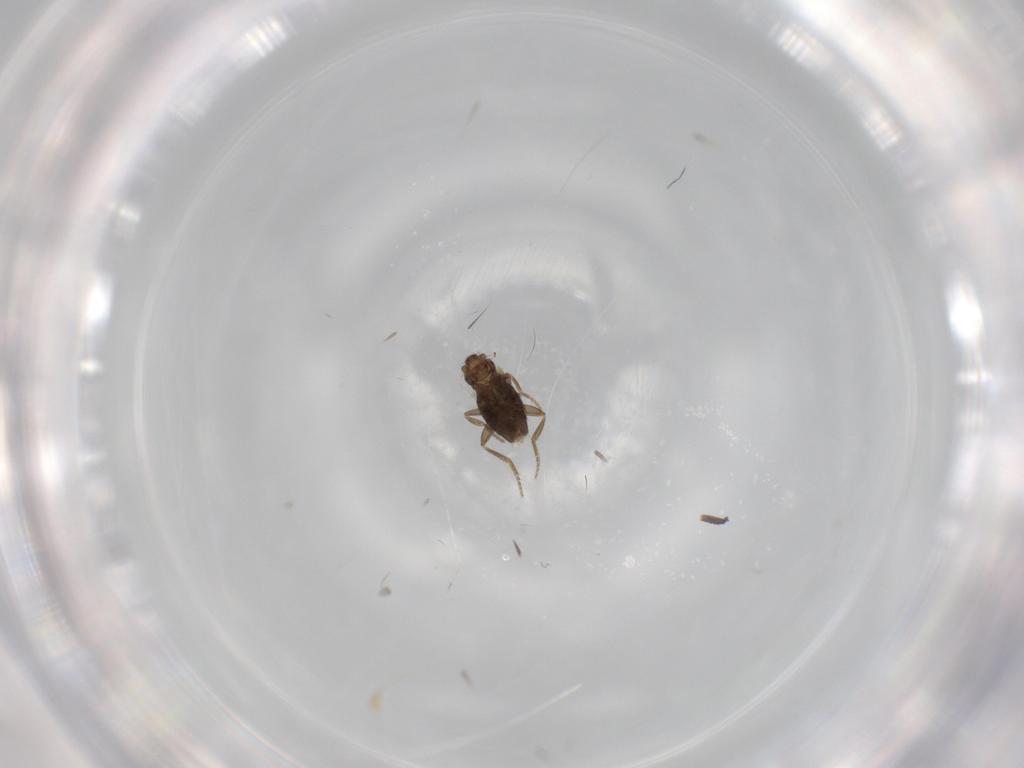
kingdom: Animalia
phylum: Arthropoda
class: Insecta
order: Diptera
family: Phoridae
